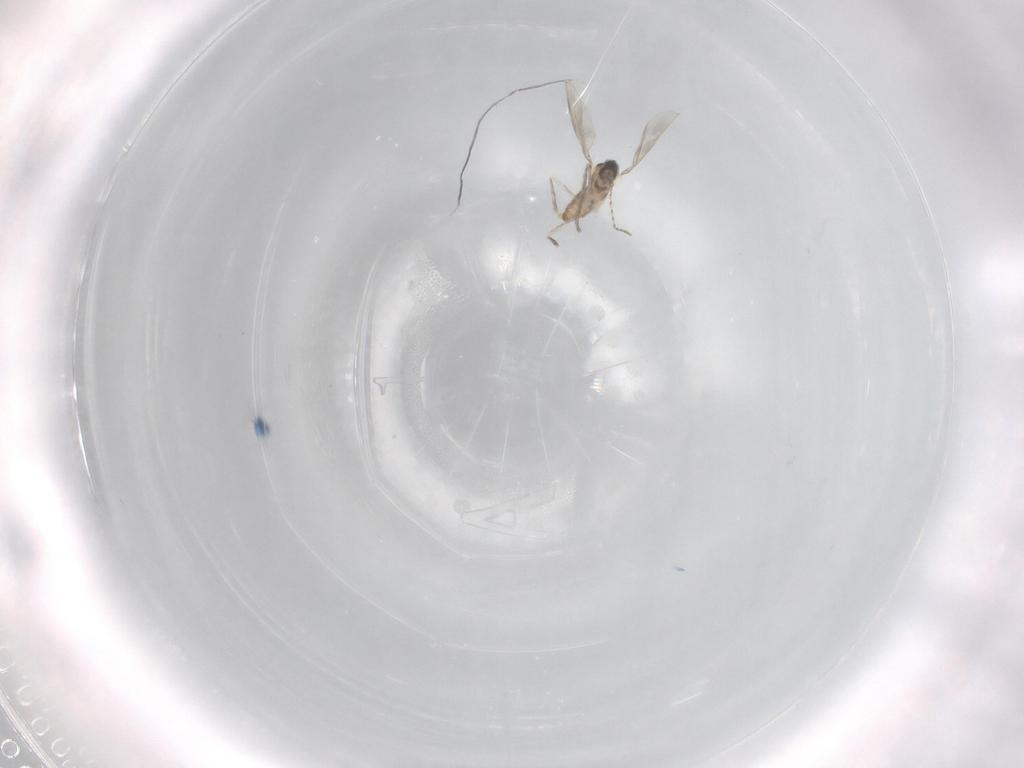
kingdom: Animalia
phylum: Arthropoda
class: Insecta
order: Diptera
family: Cecidomyiidae
